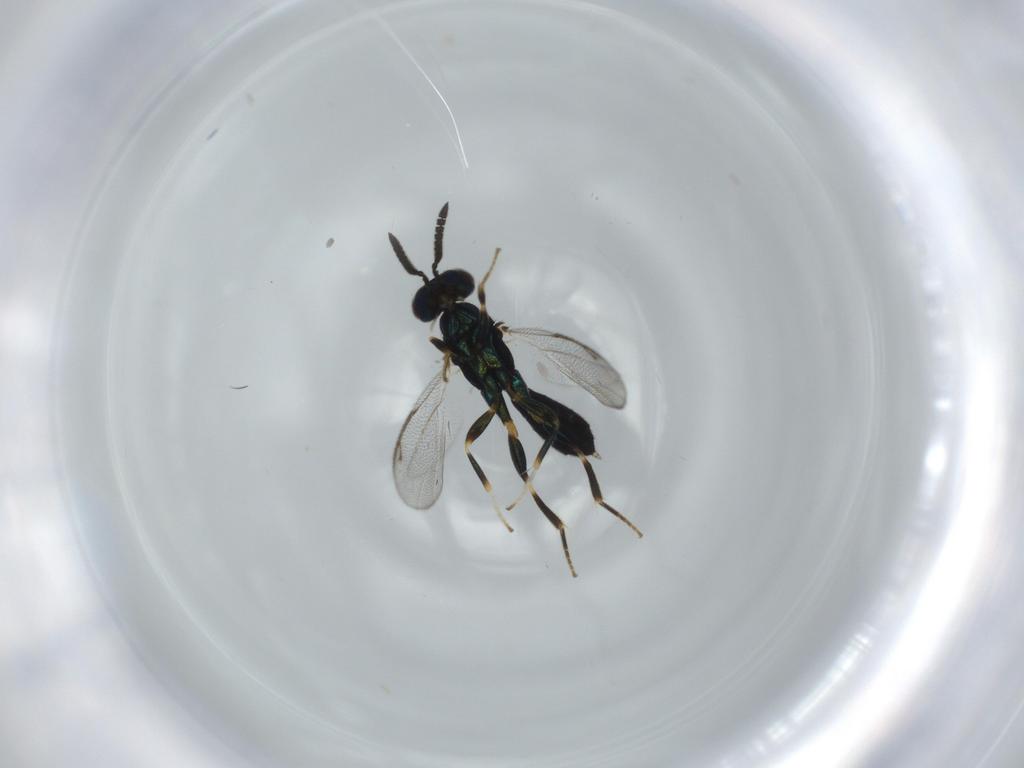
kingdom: Animalia
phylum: Arthropoda
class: Insecta
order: Hymenoptera
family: Cleonyminae
